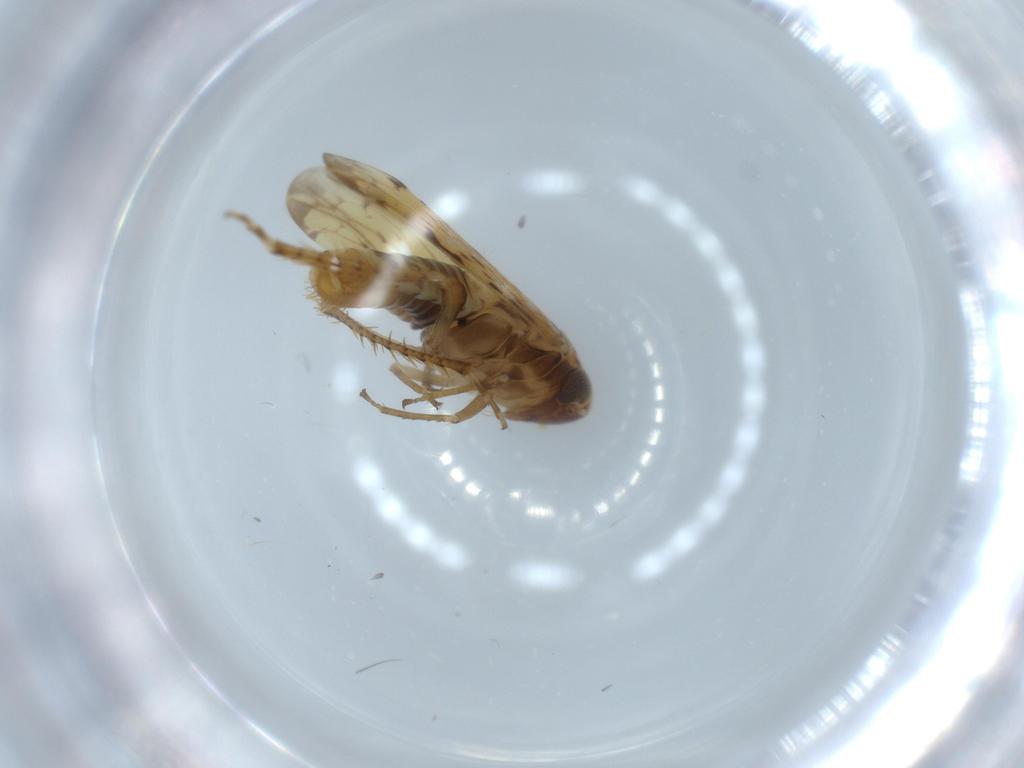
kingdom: Animalia
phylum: Arthropoda
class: Insecta
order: Hemiptera
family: Cicadellidae
